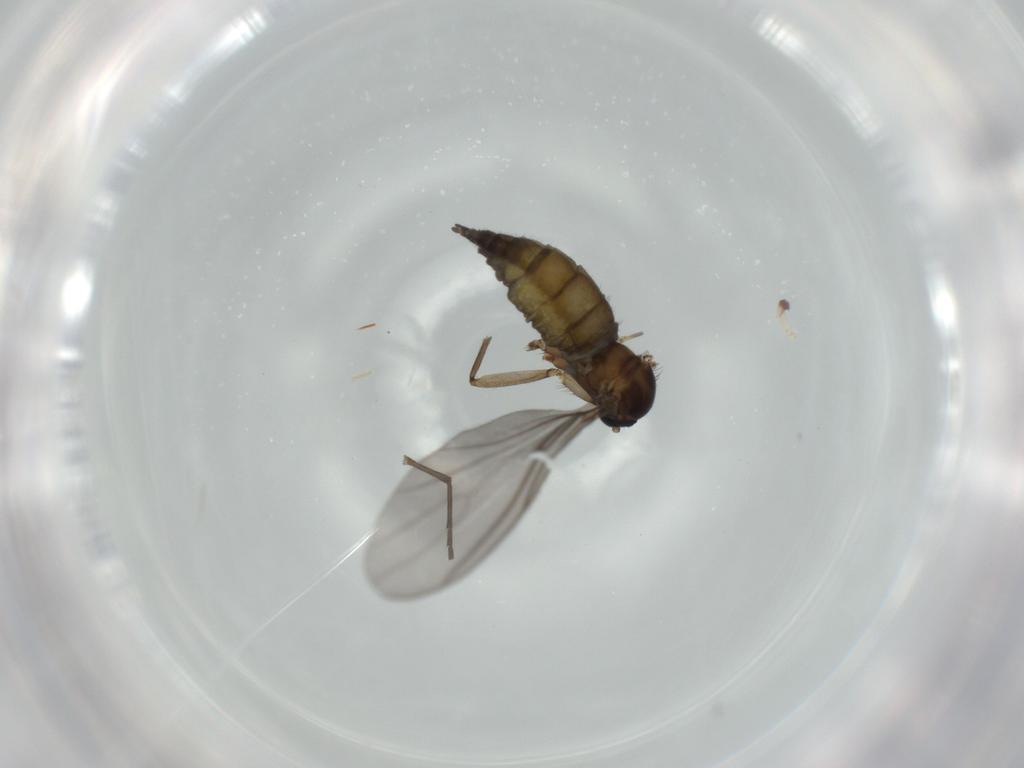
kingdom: Animalia
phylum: Arthropoda
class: Insecta
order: Diptera
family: Sciaridae
